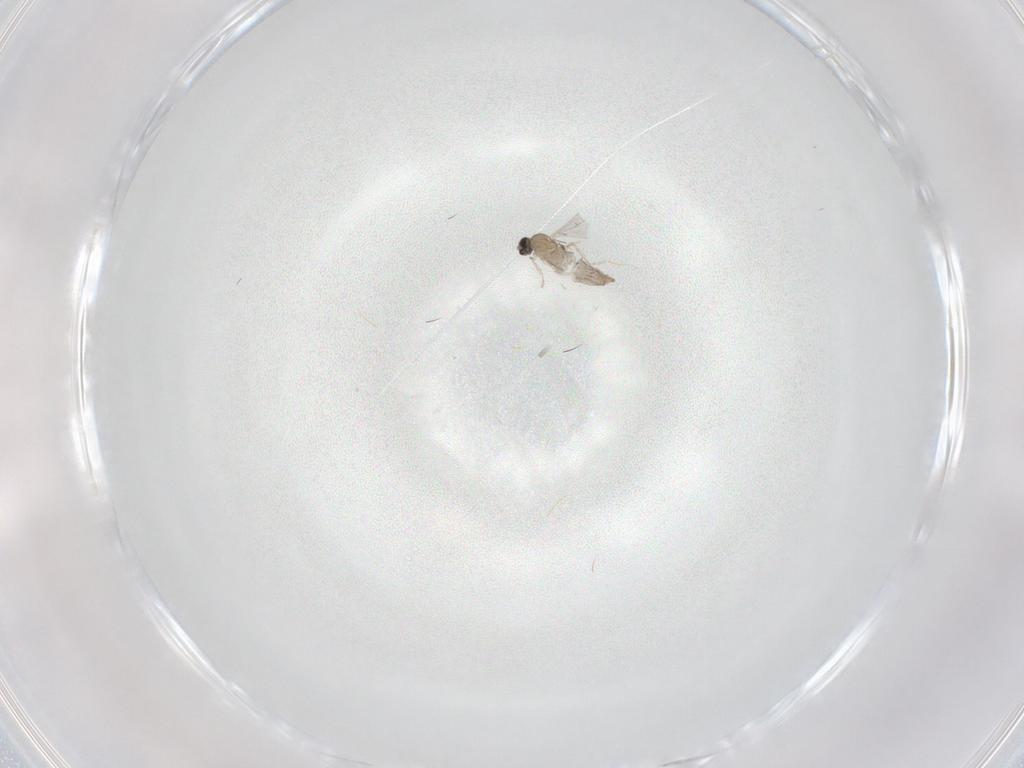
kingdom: Animalia
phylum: Arthropoda
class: Insecta
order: Diptera
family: Cecidomyiidae
